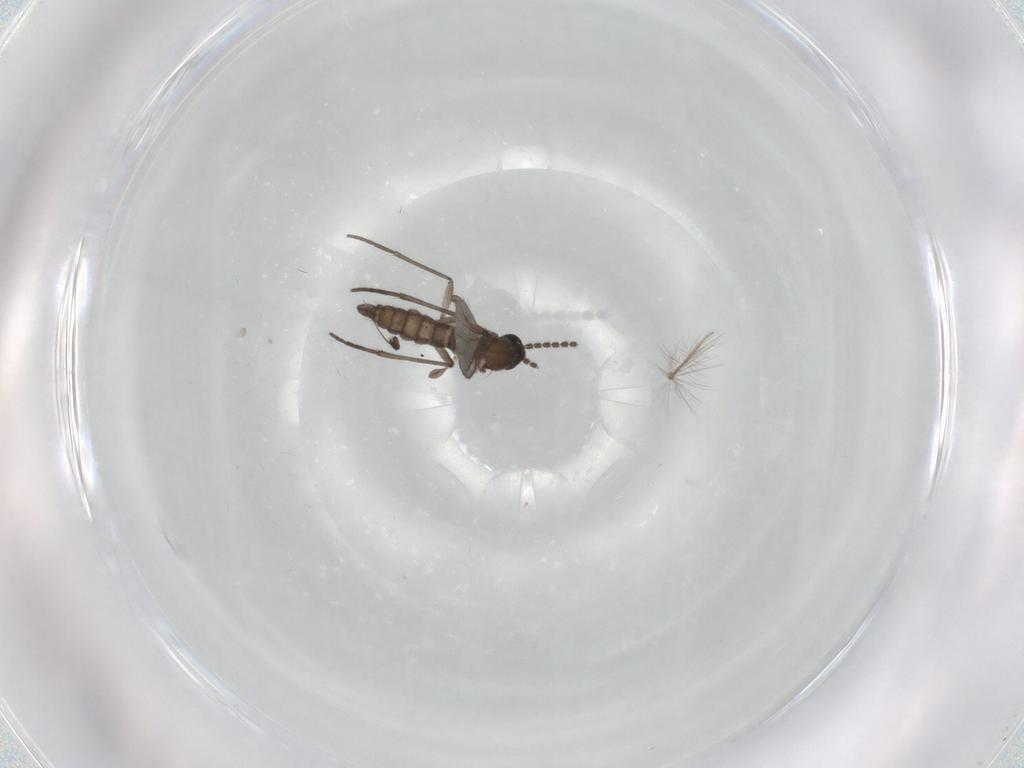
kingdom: Animalia
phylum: Arthropoda
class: Insecta
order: Diptera
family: Dolichopodidae
